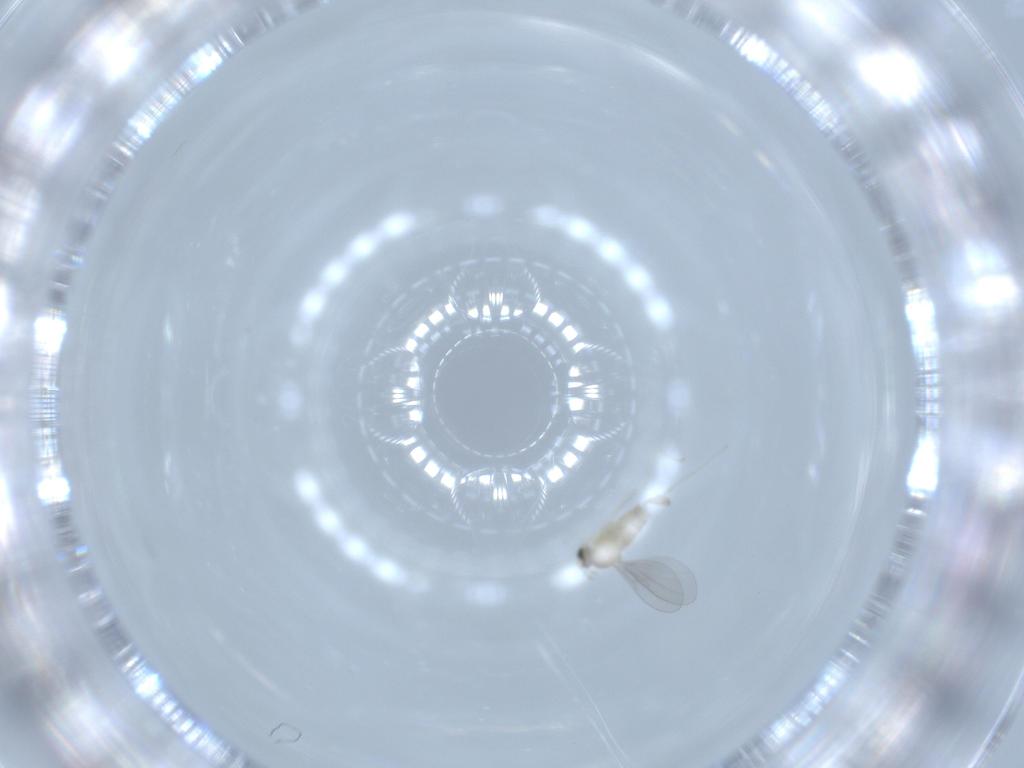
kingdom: Animalia
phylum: Arthropoda
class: Insecta
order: Diptera
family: Cecidomyiidae
